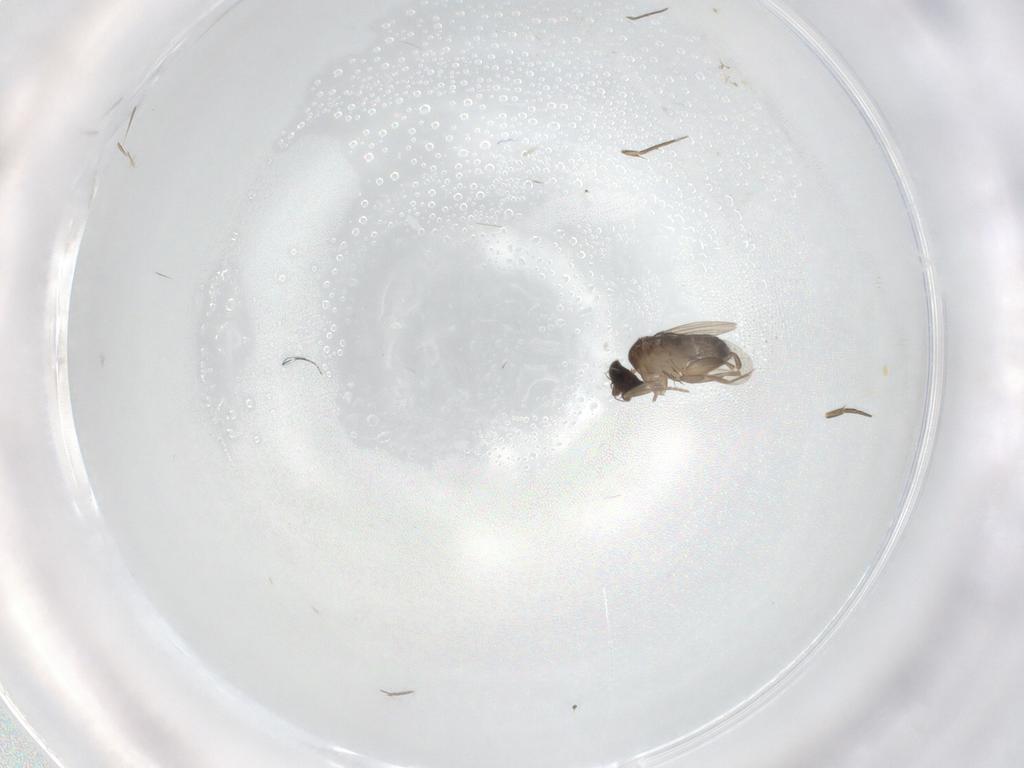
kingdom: Animalia
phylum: Arthropoda
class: Insecta
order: Diptera
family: Phoridae
